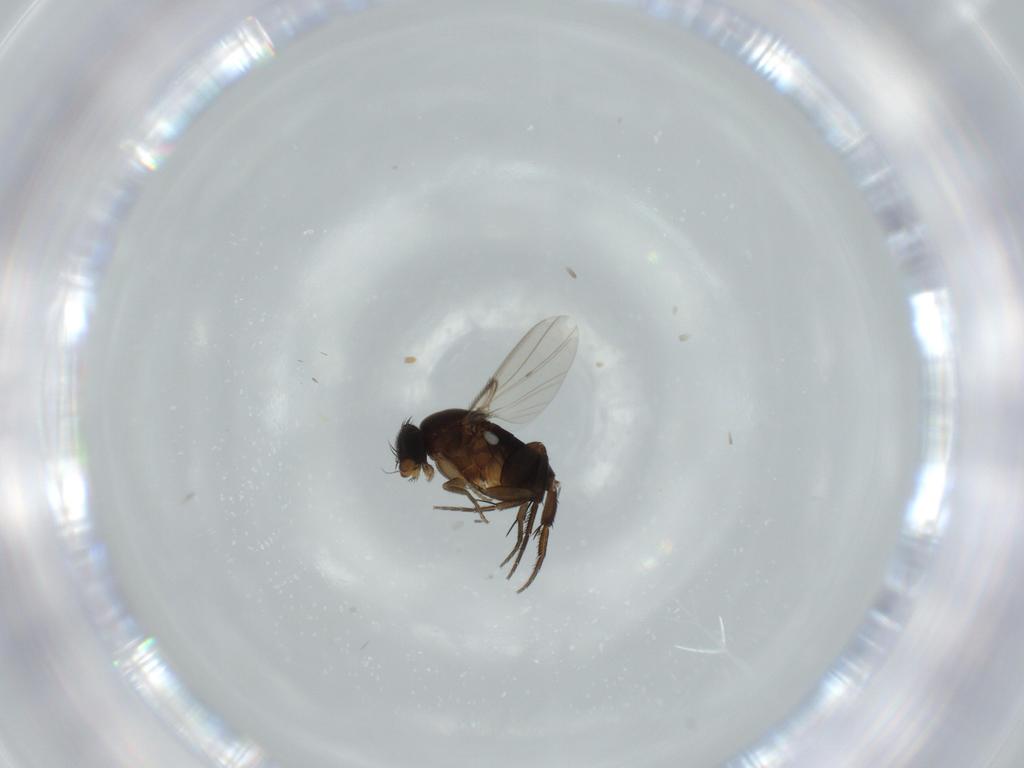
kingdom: Animalia
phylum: Arthropoda
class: Insecta
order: Diptera
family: Phoridae
